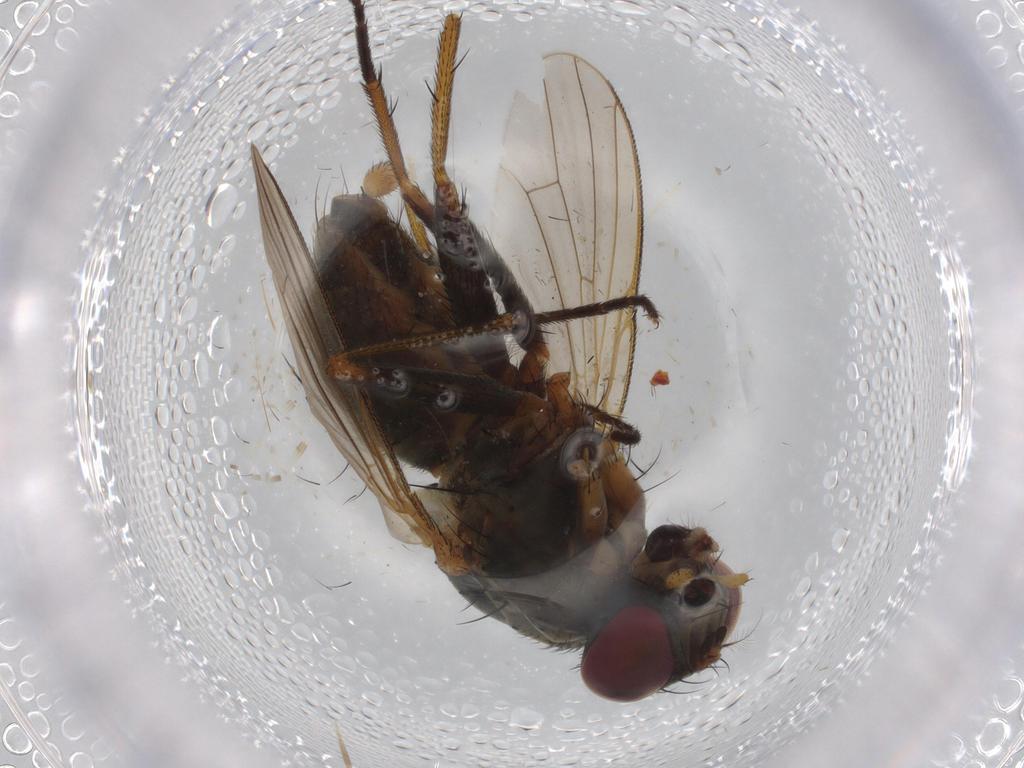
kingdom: Animalia
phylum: Arthropoda
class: Insecta
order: Diptera
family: Muscidae
